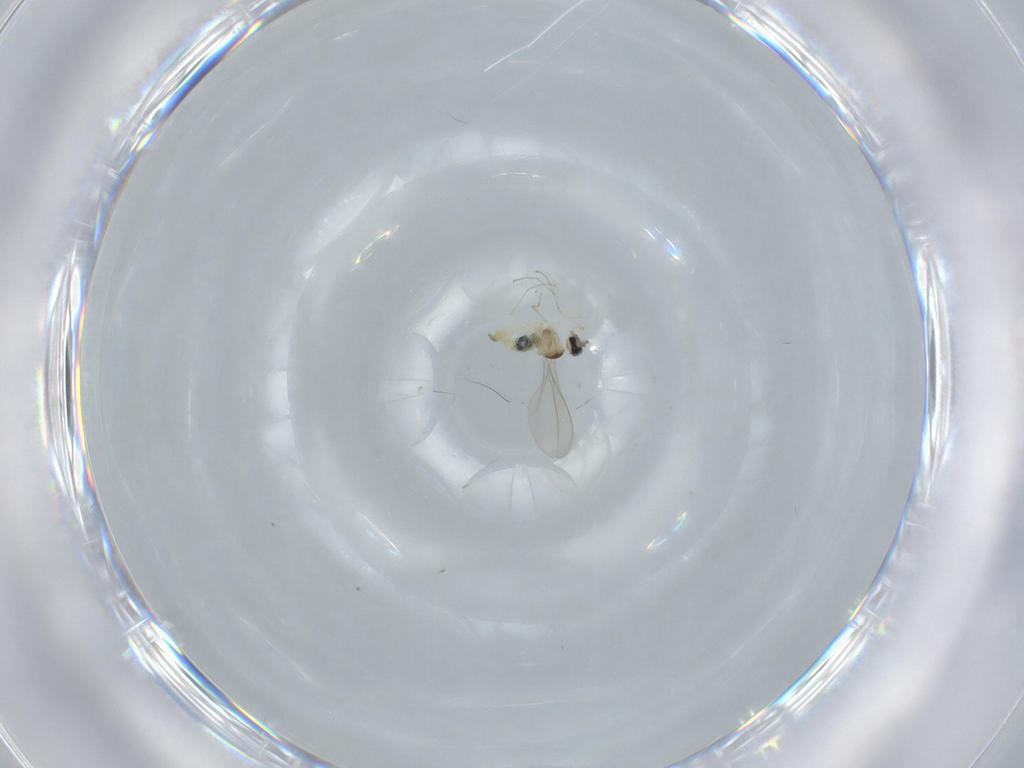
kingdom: Animalia
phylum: Arthropoda
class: Insecta
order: Diptera
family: Cecidomyiidae
